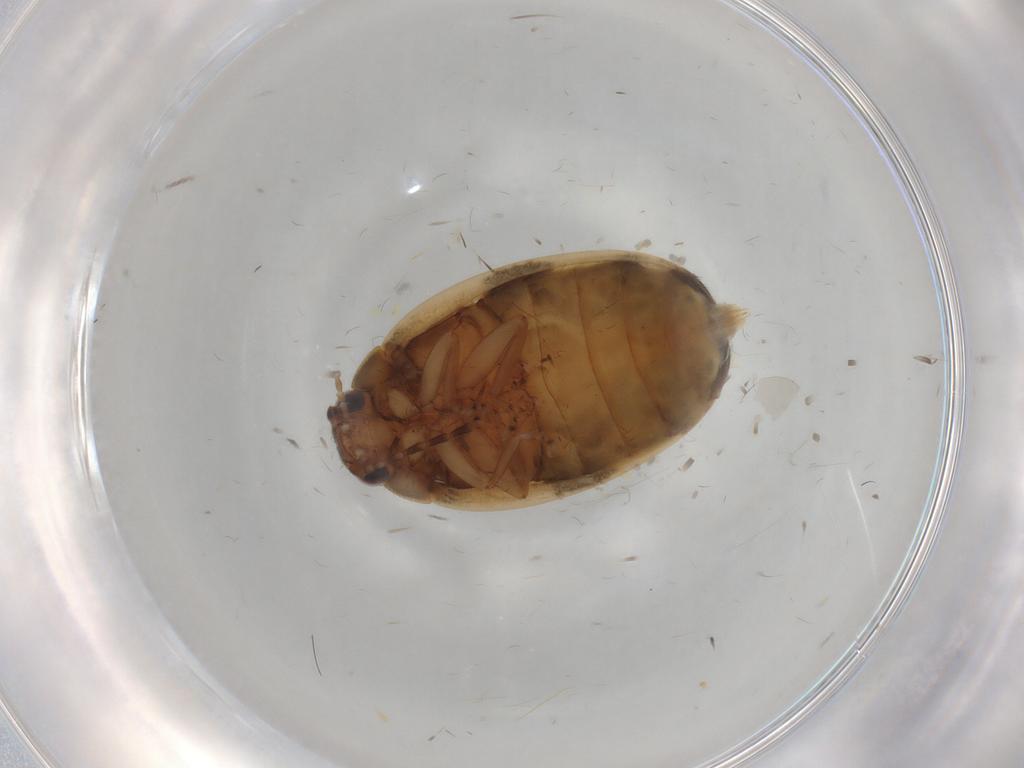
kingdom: Animalia
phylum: Arthropoda
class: Insecta
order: Coleoptera
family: Scirtidae
